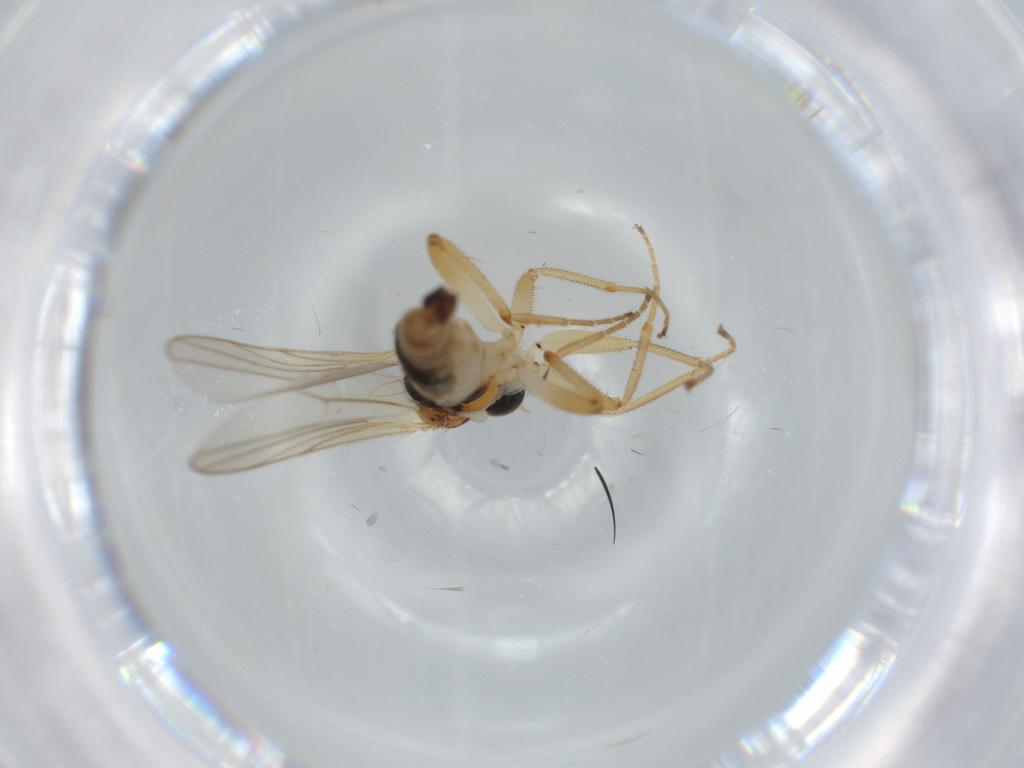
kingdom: Animalia
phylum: Arthropoda
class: Insecta
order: Diptera
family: Hybotidae
